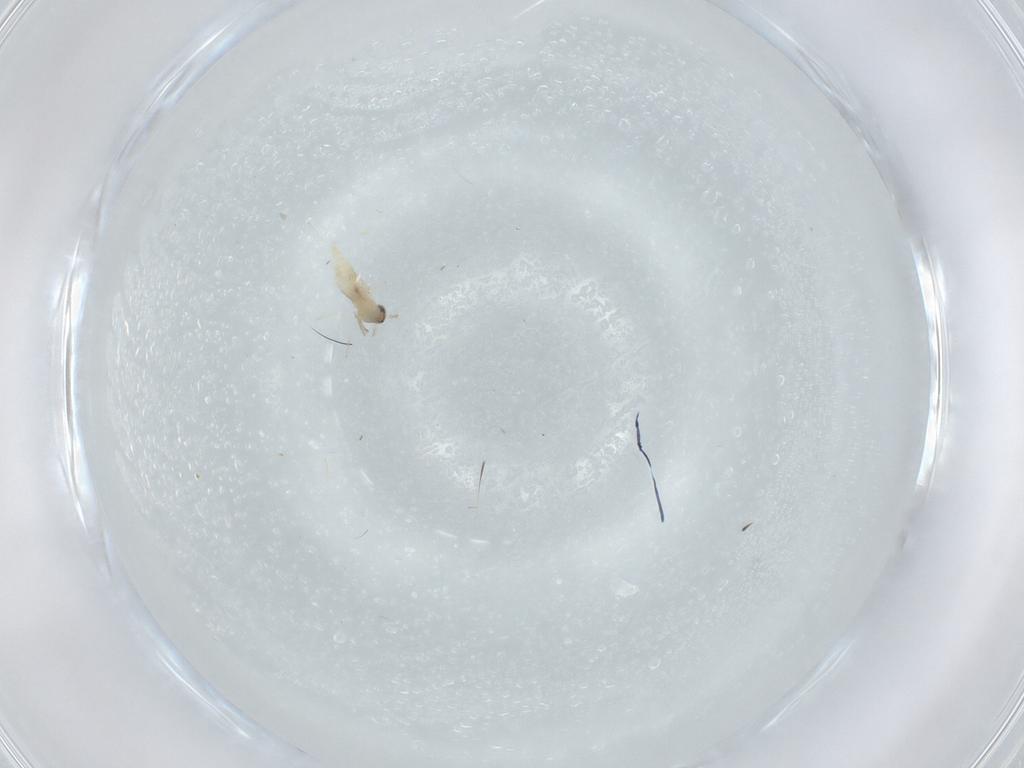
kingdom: Animalia
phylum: Arthropoda
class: Insecta
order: Diptera
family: Cecidomyiidae
